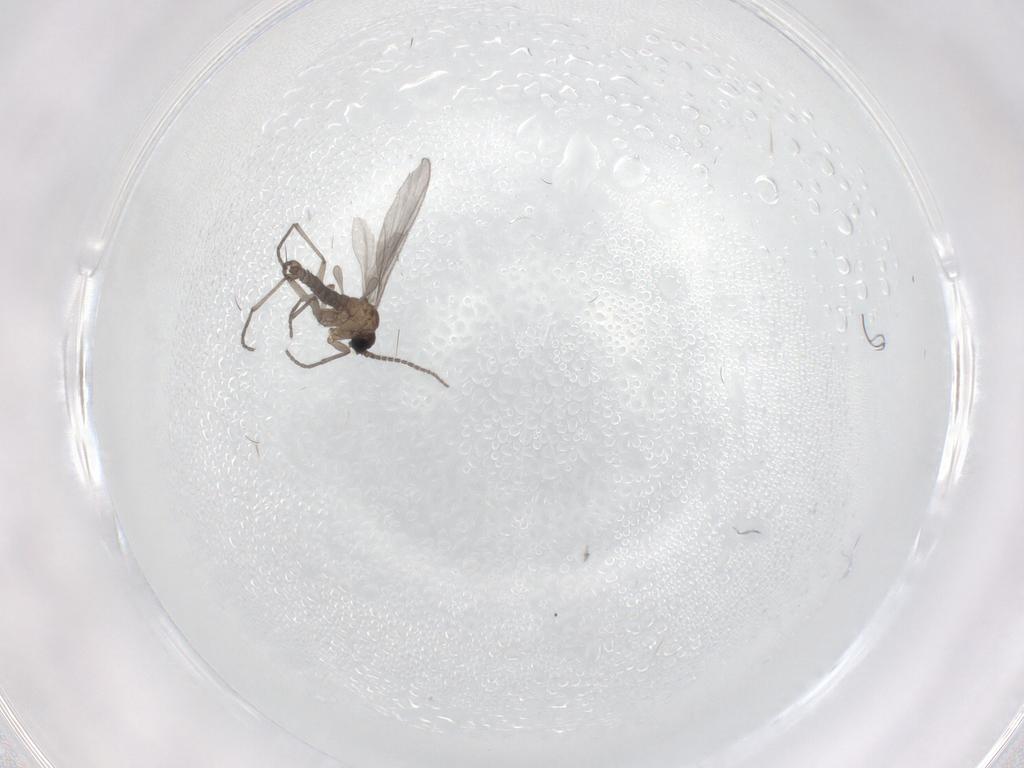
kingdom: Animalia
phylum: Arthropoda
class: Insecta
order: Diptera
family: Sciaridae
